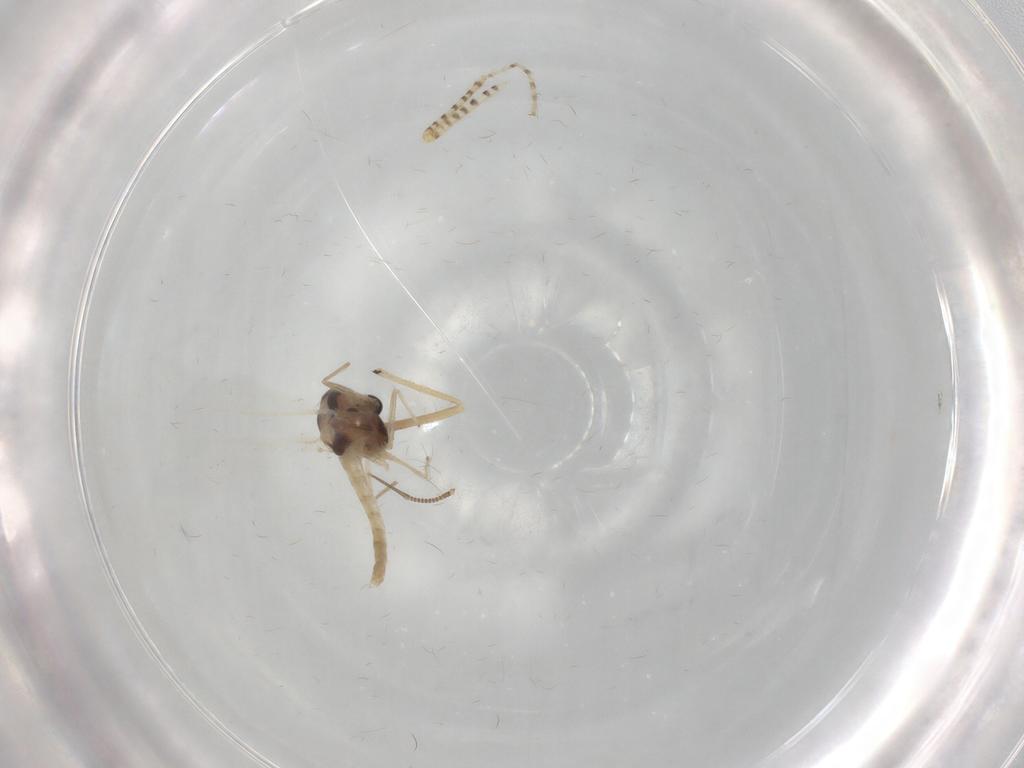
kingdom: Animalia
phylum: Arthropoda
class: Insecta
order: Diptera
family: Chironomidae
